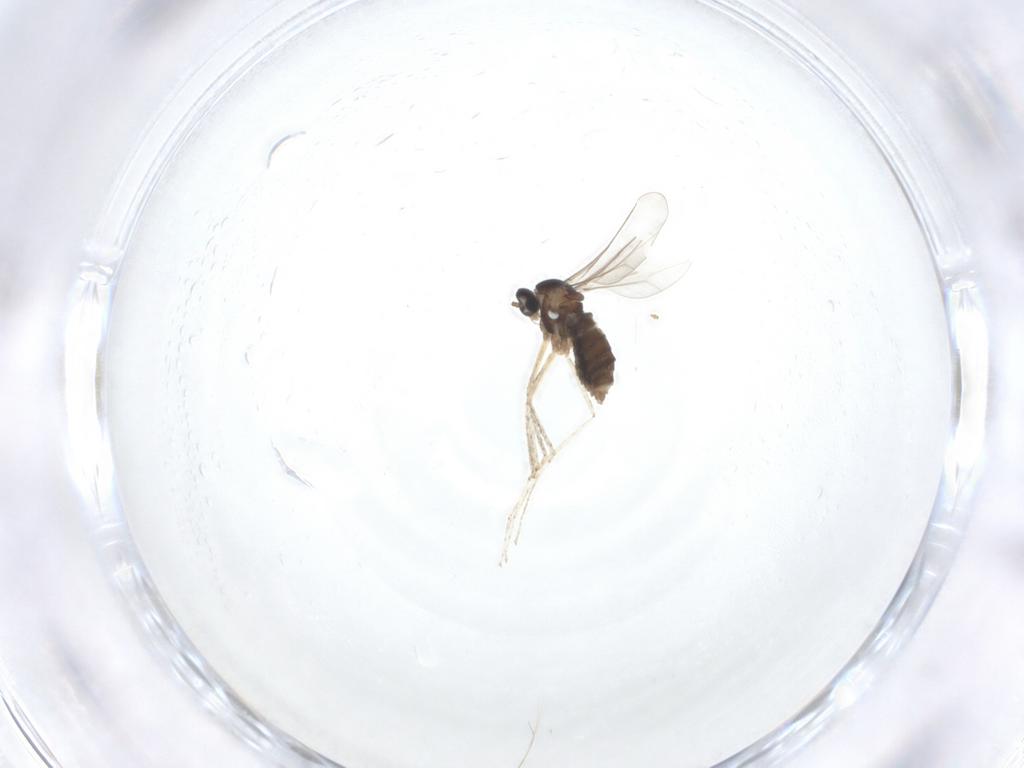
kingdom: Animalia
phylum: Arthropoda
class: Insecta
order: Diptera
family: Cecidomyiidae
